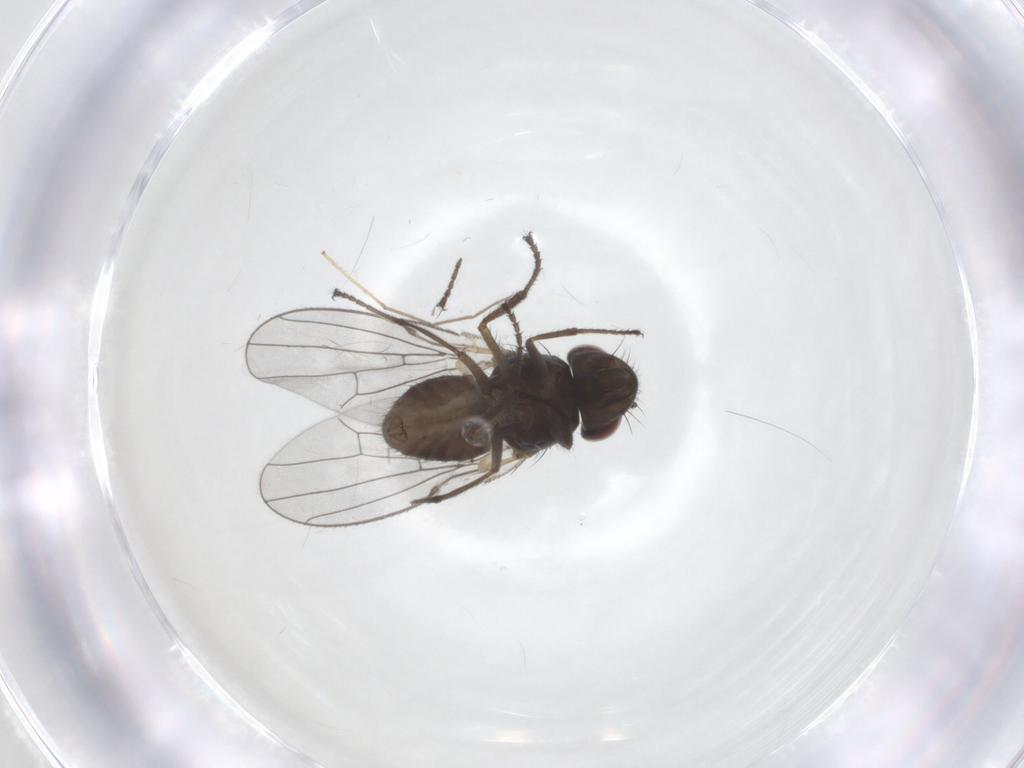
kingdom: Animalia
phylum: Arthropoda
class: Insecta
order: Diptera
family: Ephydridae
